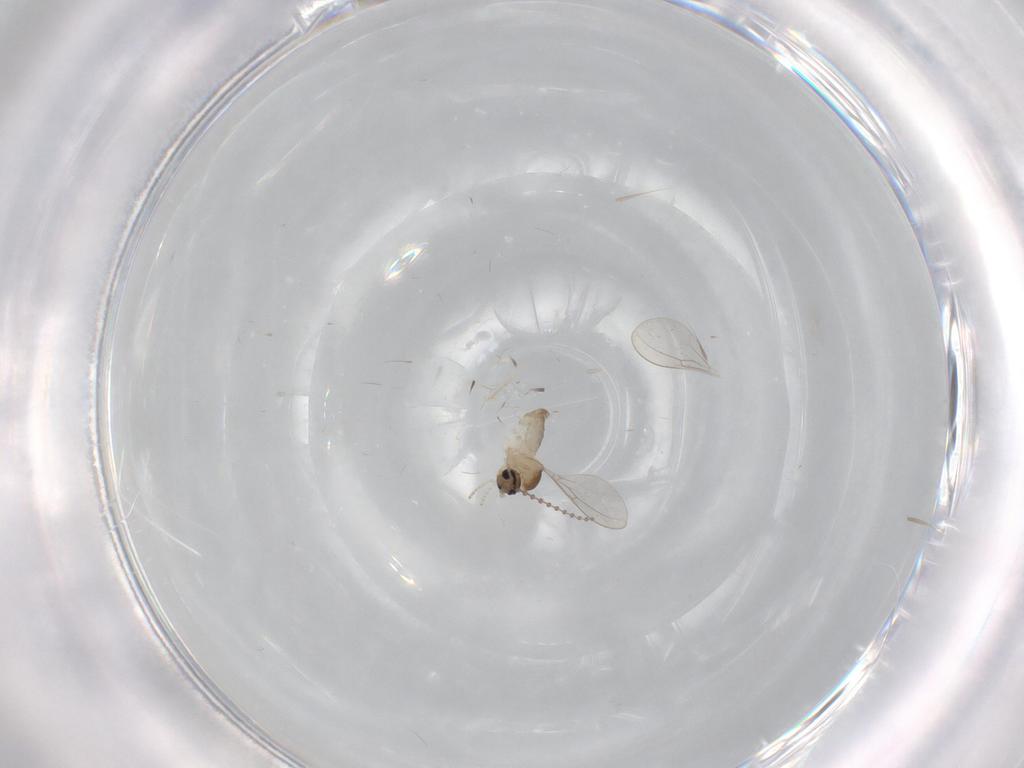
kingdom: Animalia
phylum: Arthropoda
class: Insecta
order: Diptera
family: Cecidomyiidae
